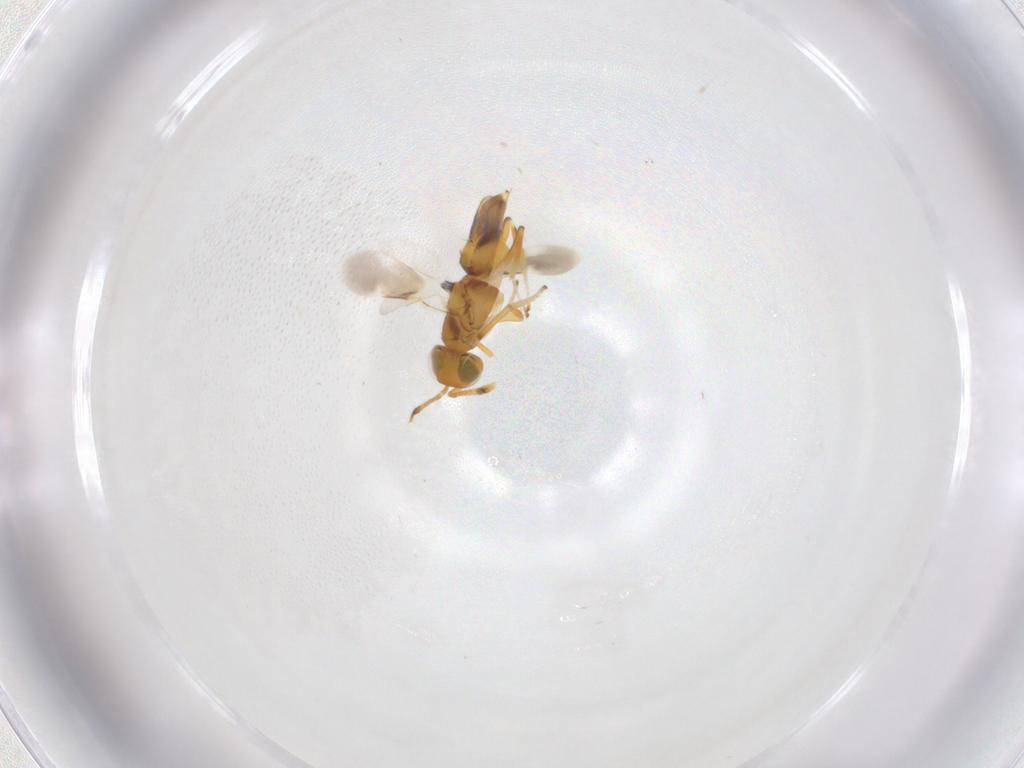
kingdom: Animalia
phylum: Arthropoda
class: Insecta
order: Hymenoptera
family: Encyrtidae
